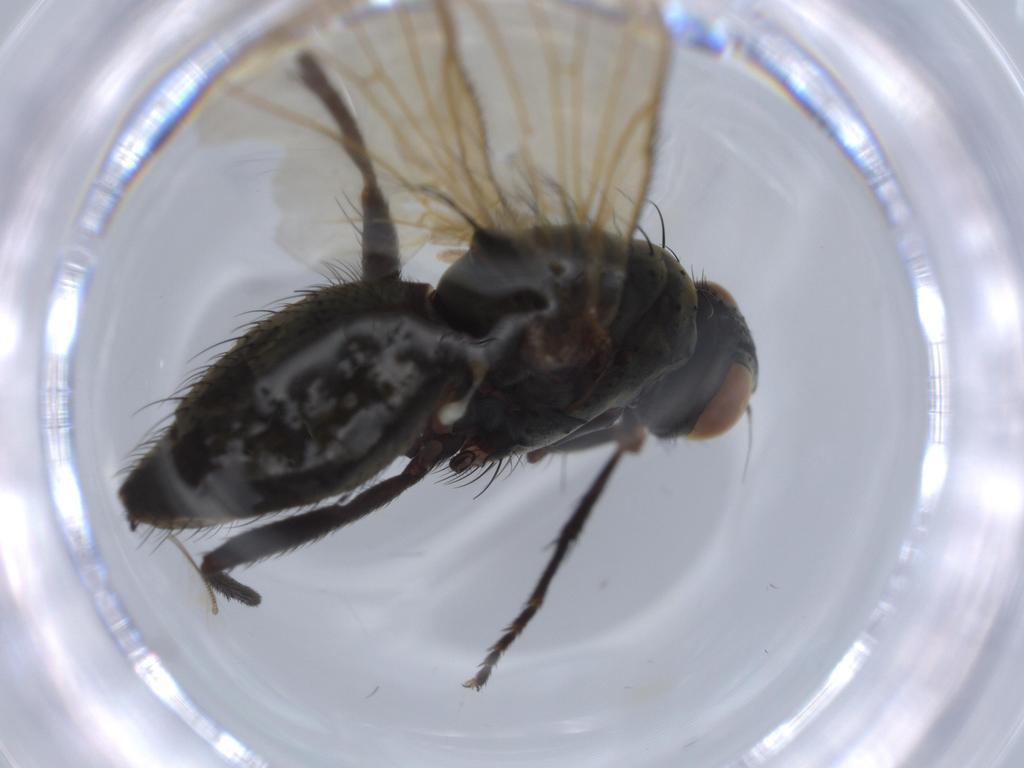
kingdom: Animalia
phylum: Arthropoda
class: Insecta
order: Diptera
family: Anthomyiidae
